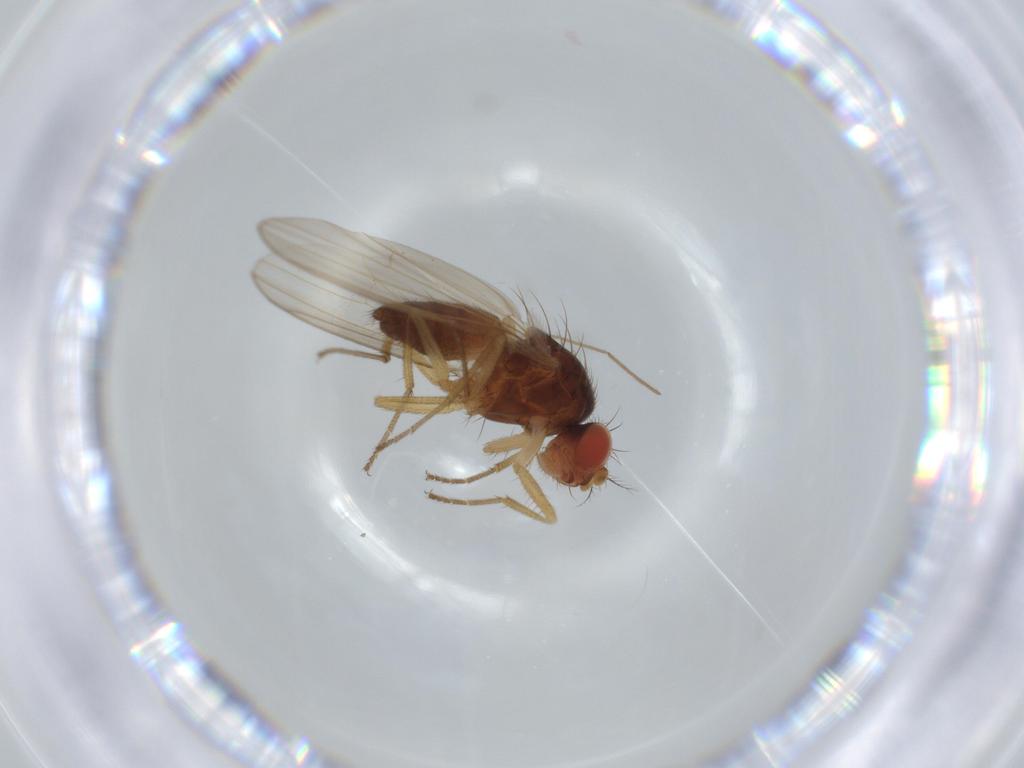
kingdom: Animalia
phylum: Arthropoda
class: Insecta
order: Diptera
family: Drosophilidae
